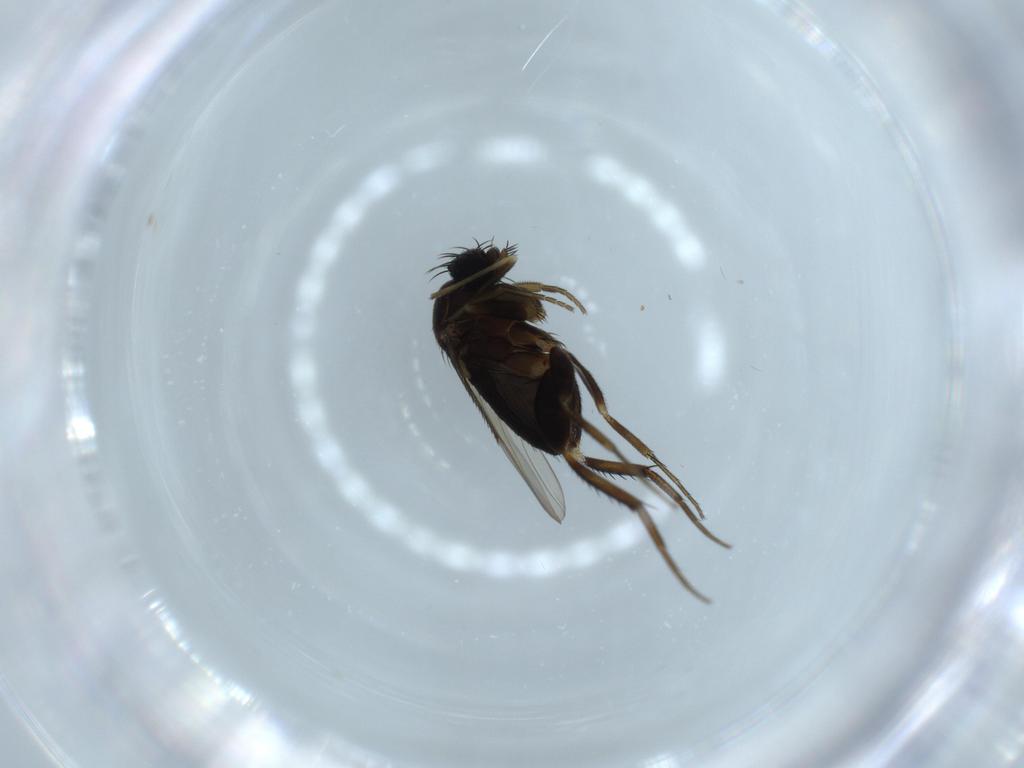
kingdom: Animalia
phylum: Arthropoda
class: Insecta
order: Diptera
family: Phoridae
